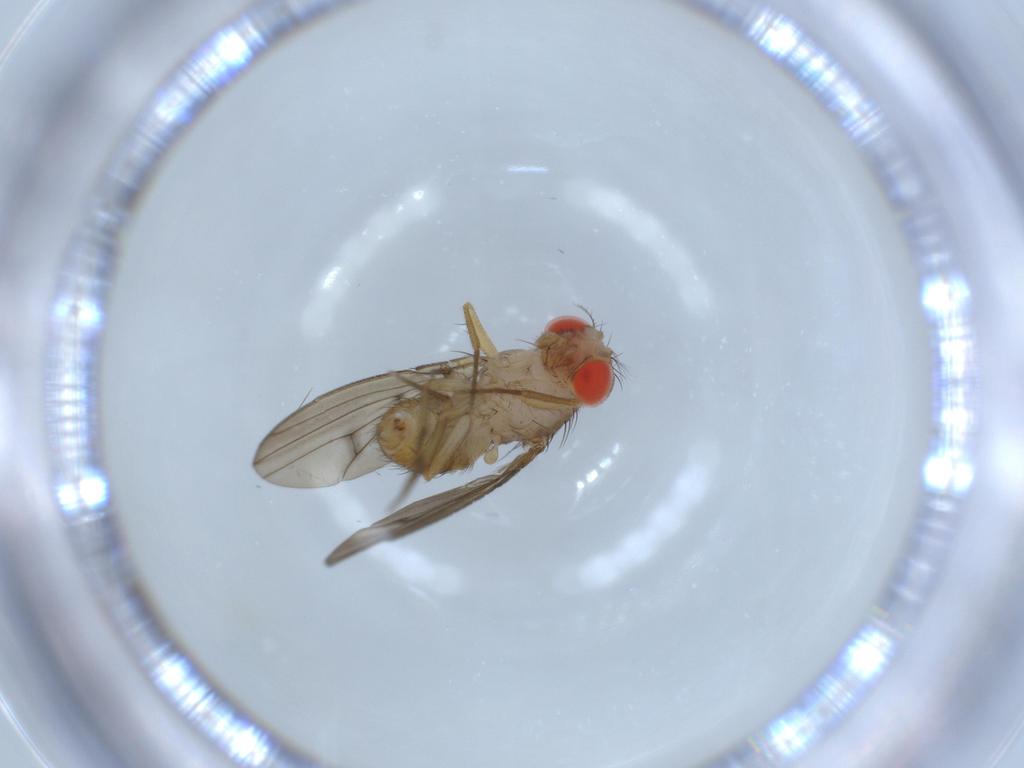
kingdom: Animalia
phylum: Arthropoda
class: Insecta
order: Diptera
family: Drosophilidae
